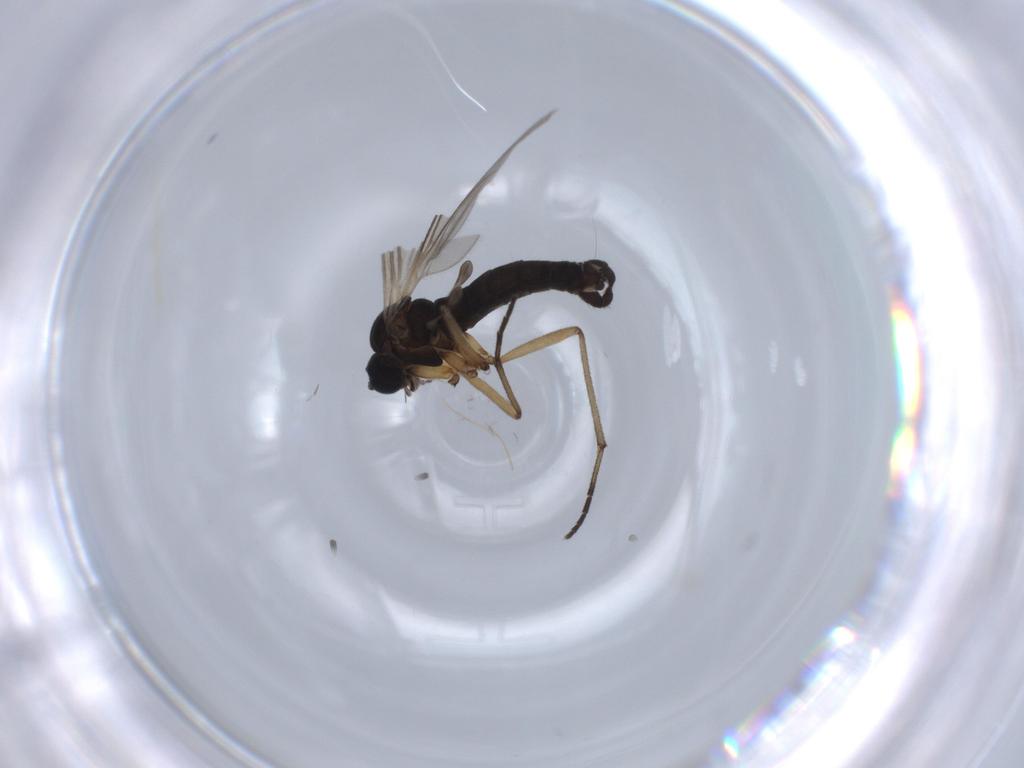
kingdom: Animalia
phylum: Arthropoda
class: Insecta
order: Diptera
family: Sciaridae
